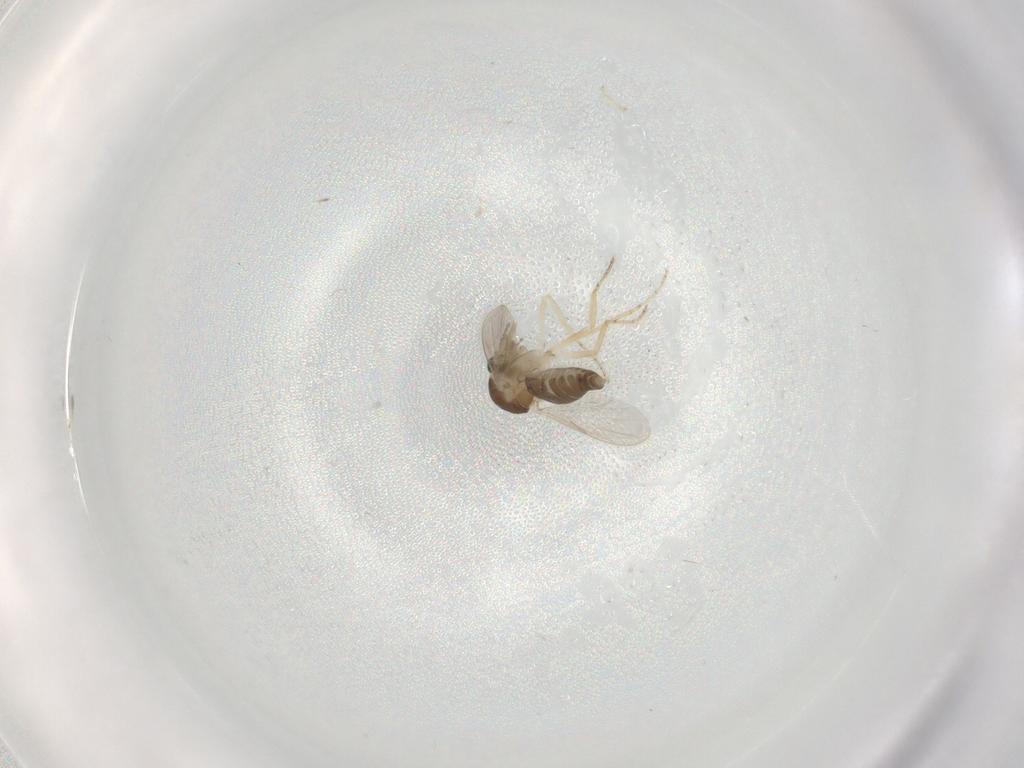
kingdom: Animalia
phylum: Arthropoda
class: Insecta
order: Diptera
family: Ceratopogonidae
